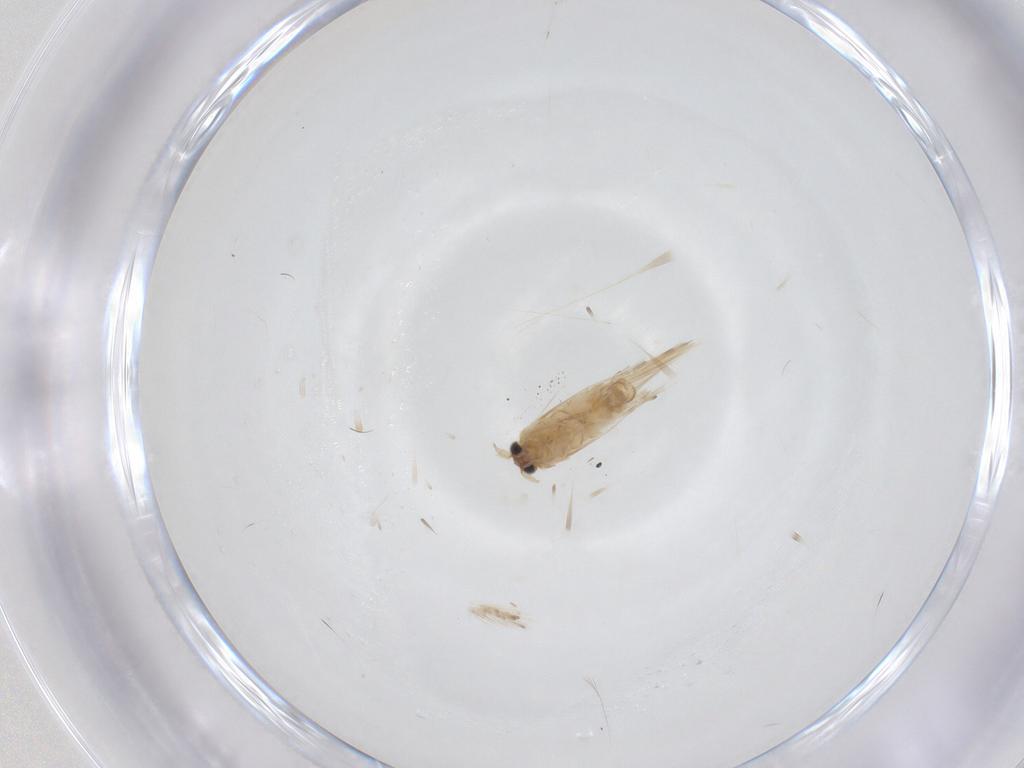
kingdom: Animalia
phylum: Arthropoda
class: Insecta
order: Lepidoptera
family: Nepticulidae
